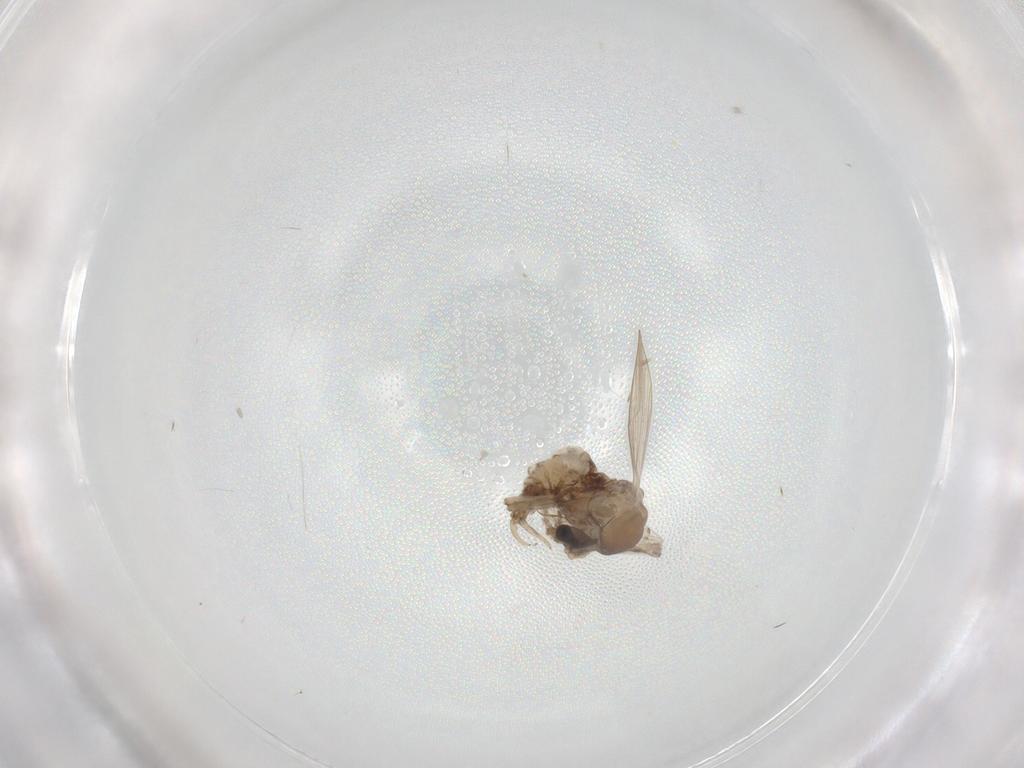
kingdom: Animalia
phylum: Arthropoda
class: Insecta
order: Diptera
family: Psychodidae
